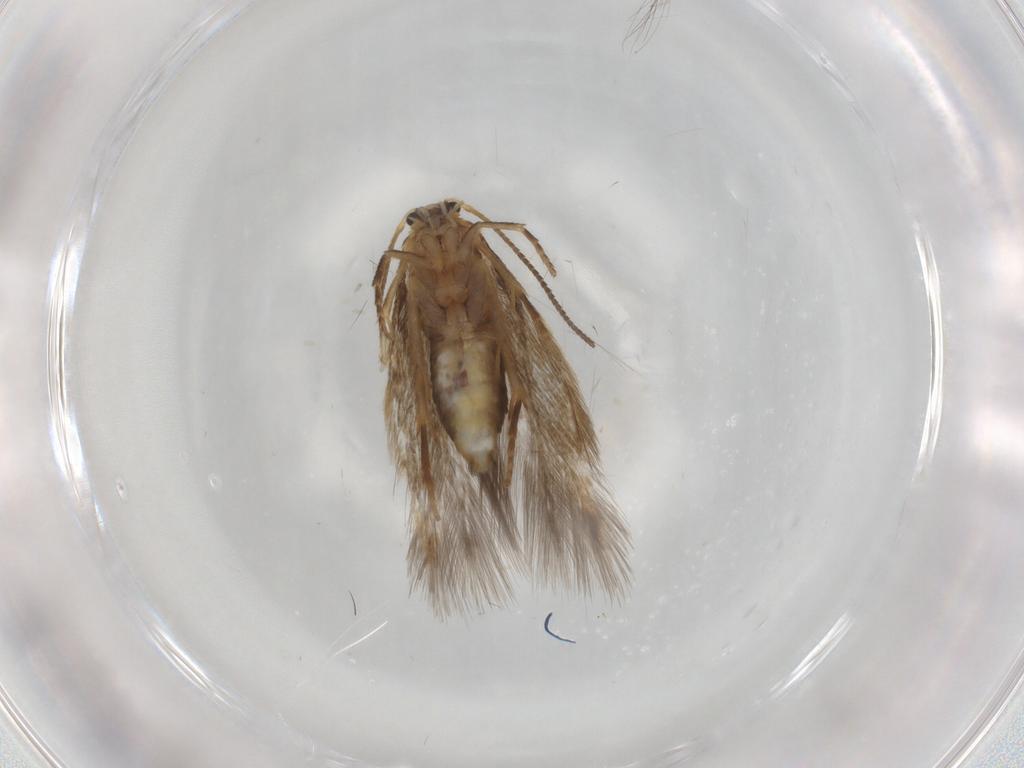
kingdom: Animalia
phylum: Arthropoda
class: Insecta
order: Lepidoptera
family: Nepticulidae
